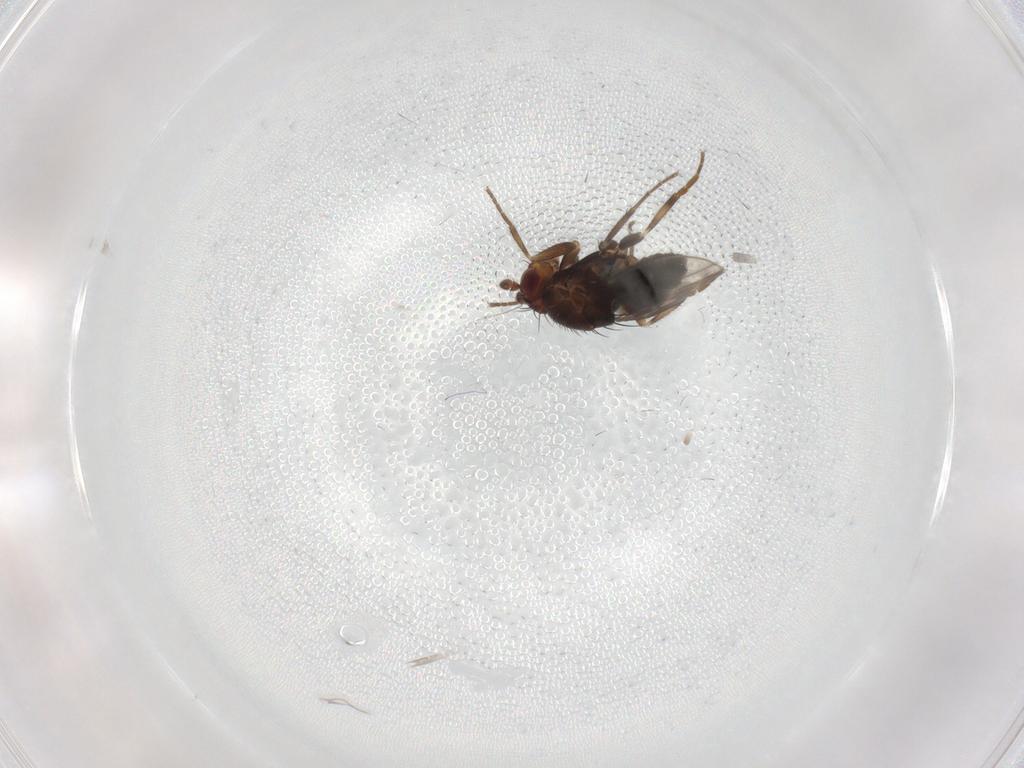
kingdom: Animalia
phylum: Arthropoda
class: Insecta
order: Diptera
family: Sphaeroceridae
